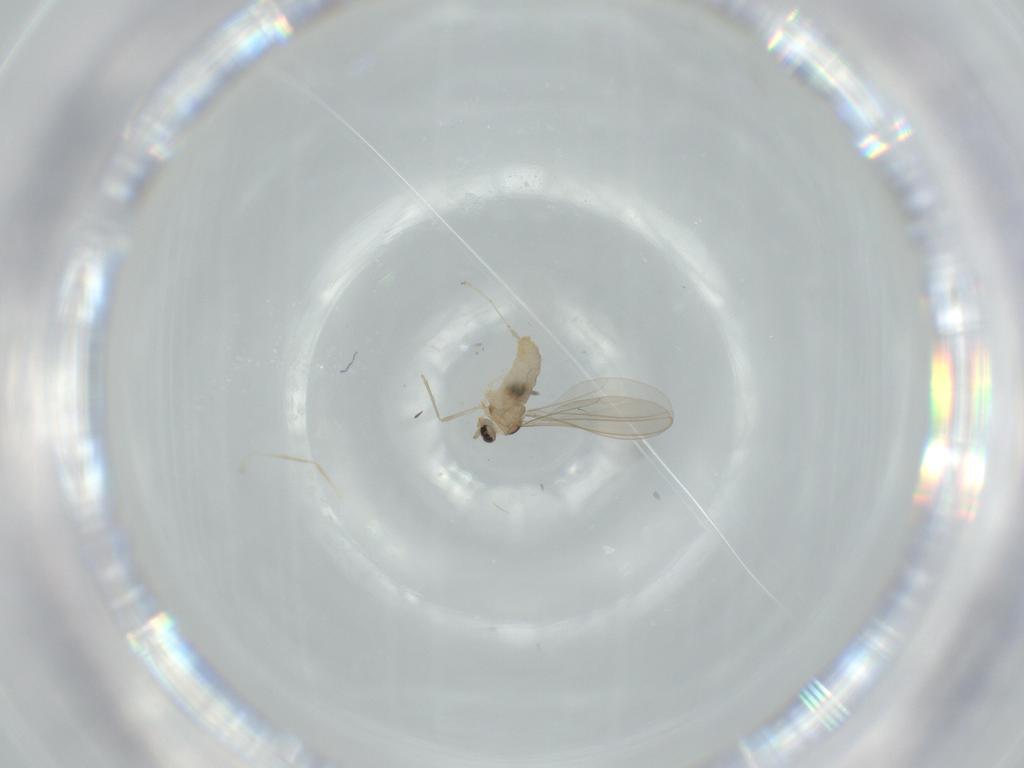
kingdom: Animalia
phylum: Arthropoda
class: Insecta
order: Diptera
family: Cecidomyiidae
